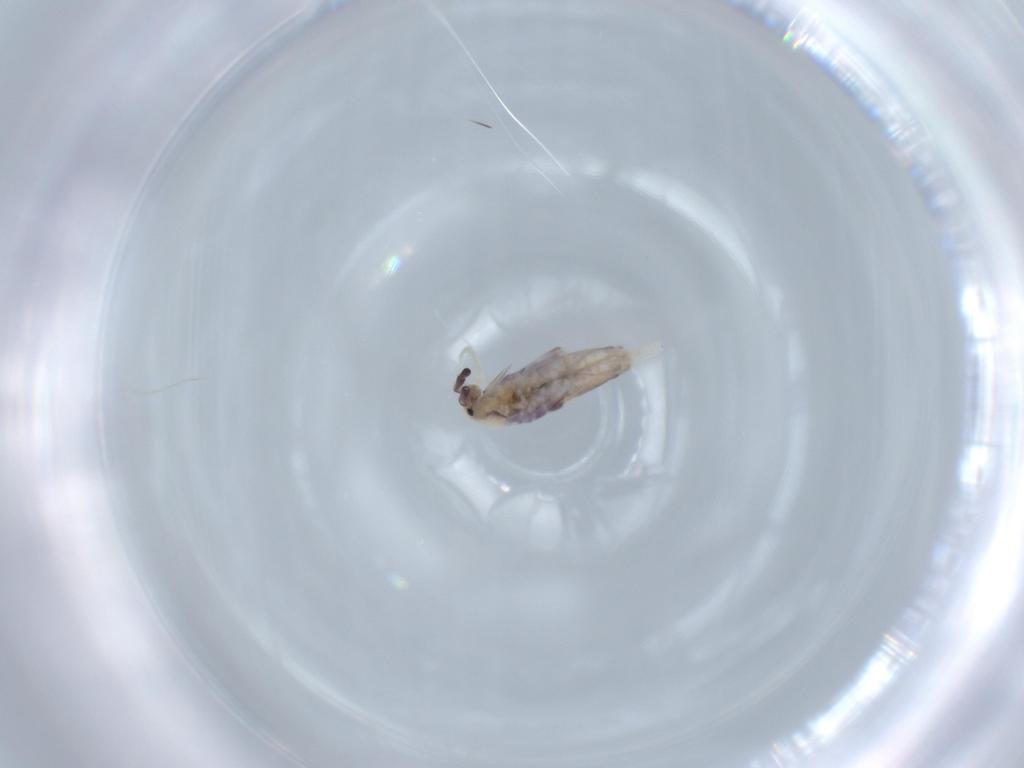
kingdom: Animalia
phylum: Arthropoda
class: Collembola
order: Poduromorpha
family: Hypogastruridae
